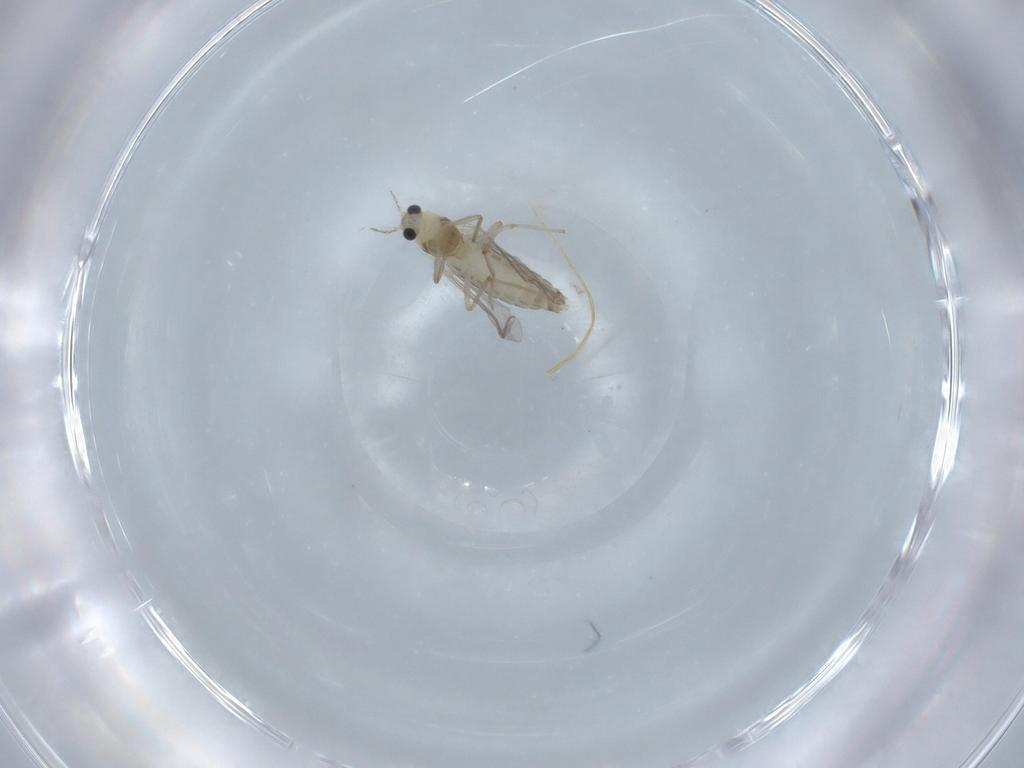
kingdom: Animalia
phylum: Arthropoda
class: Insecta
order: Diptera
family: Chironomidae
